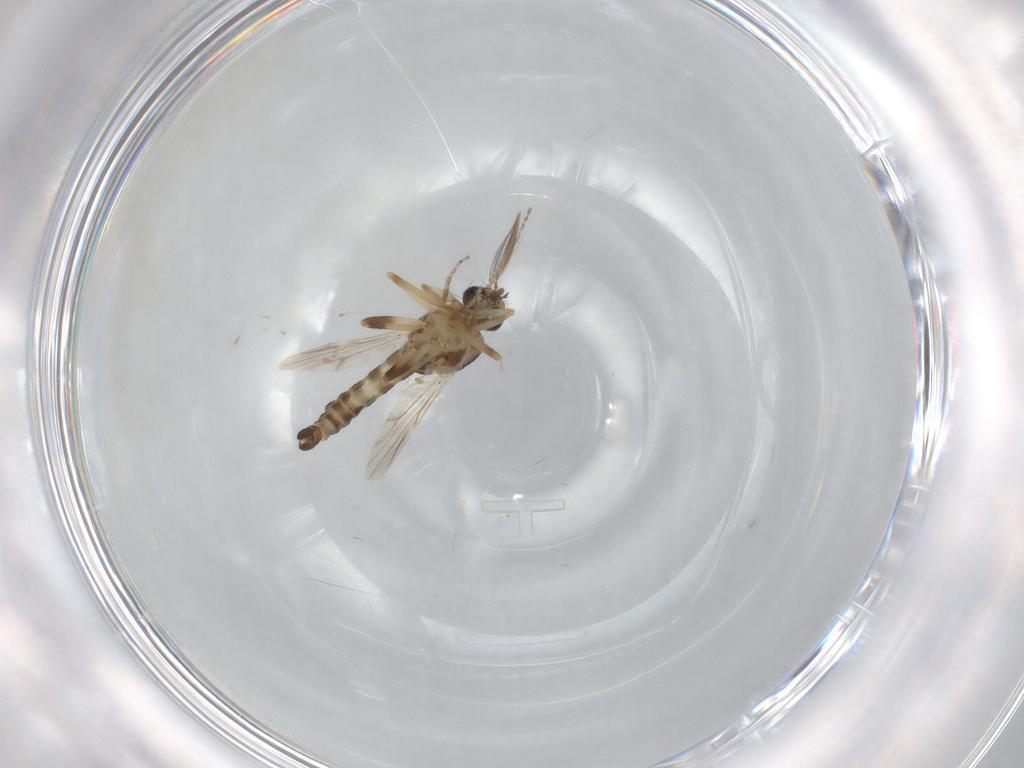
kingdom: Animalia
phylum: Arthropoda
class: Insecta
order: Diptera
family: Ceratopogonidae
